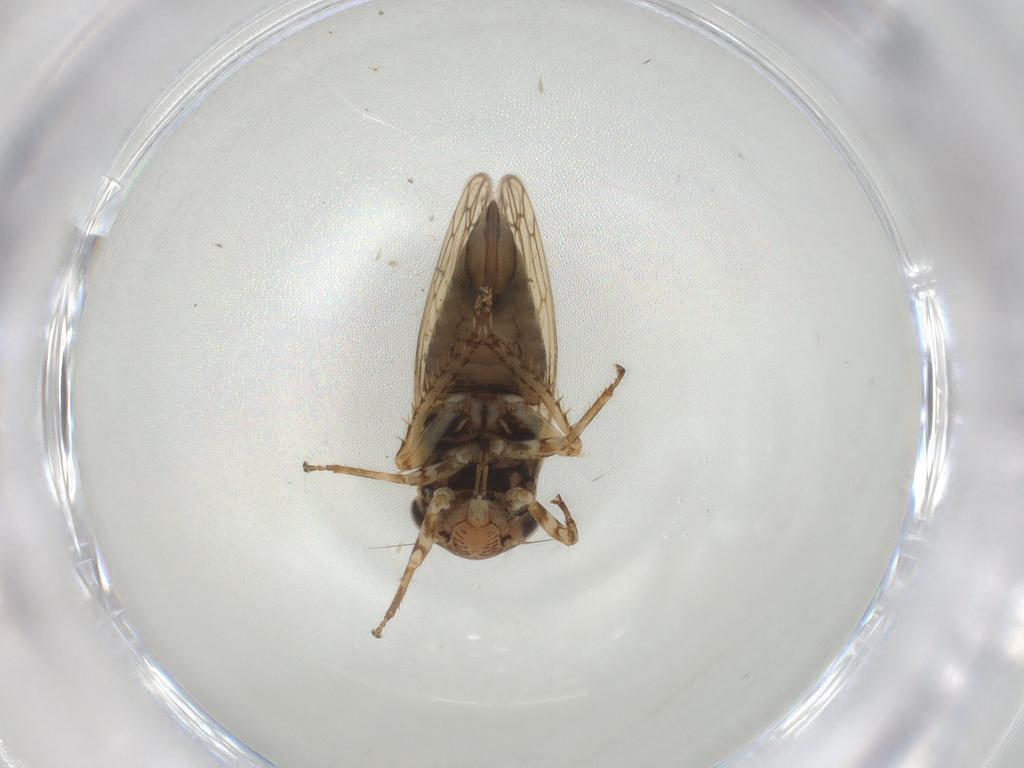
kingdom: Animalia
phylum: Arthropoda
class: Insecta
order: Hemiptera
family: Cicadellidae
